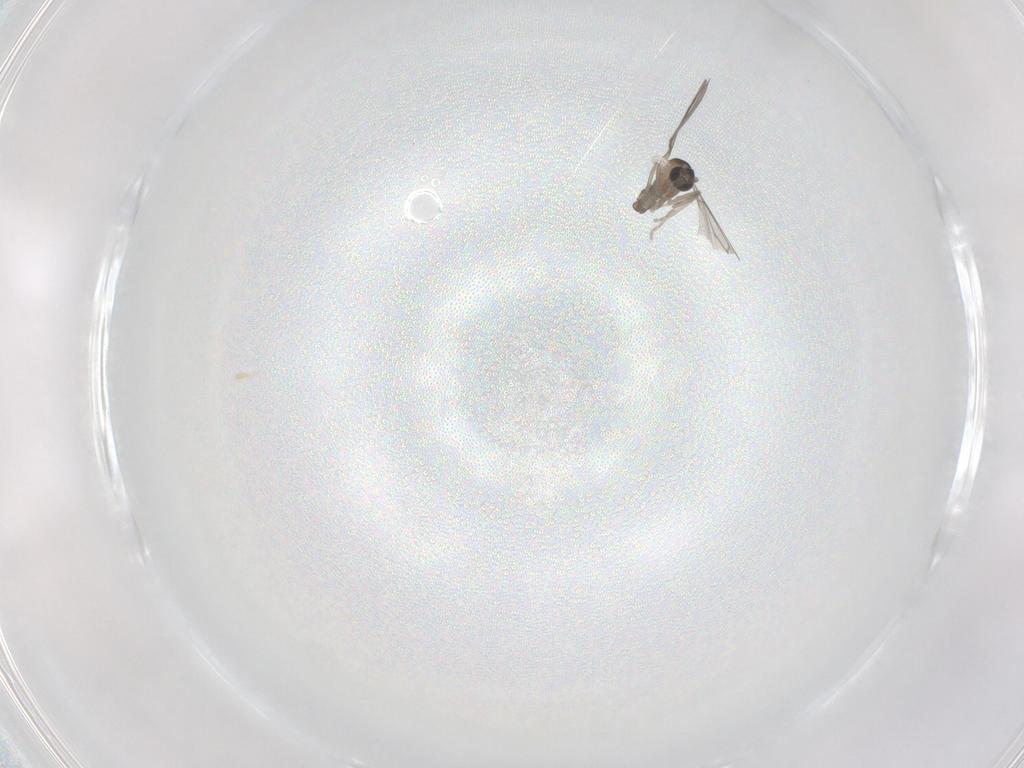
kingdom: Animalia
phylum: Arthropoda
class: Insecta
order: Diptera
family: Cecidomyiidae
